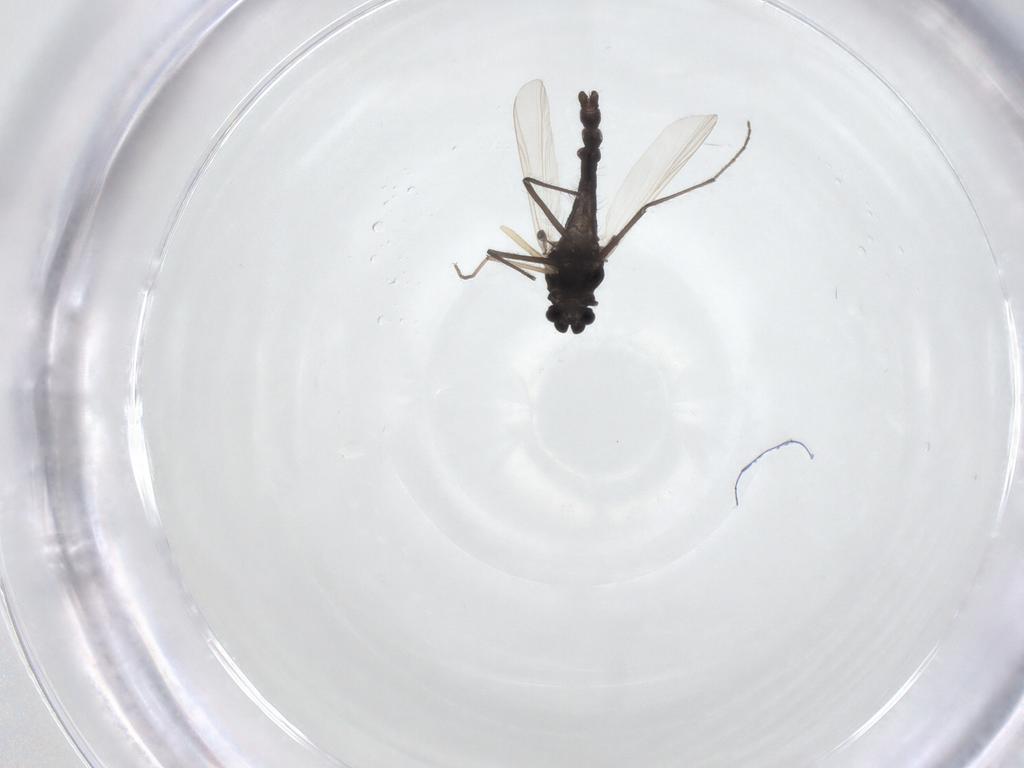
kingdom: Animalia
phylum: Arthropoda
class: Insecta
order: Diptera
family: Chironomidae
